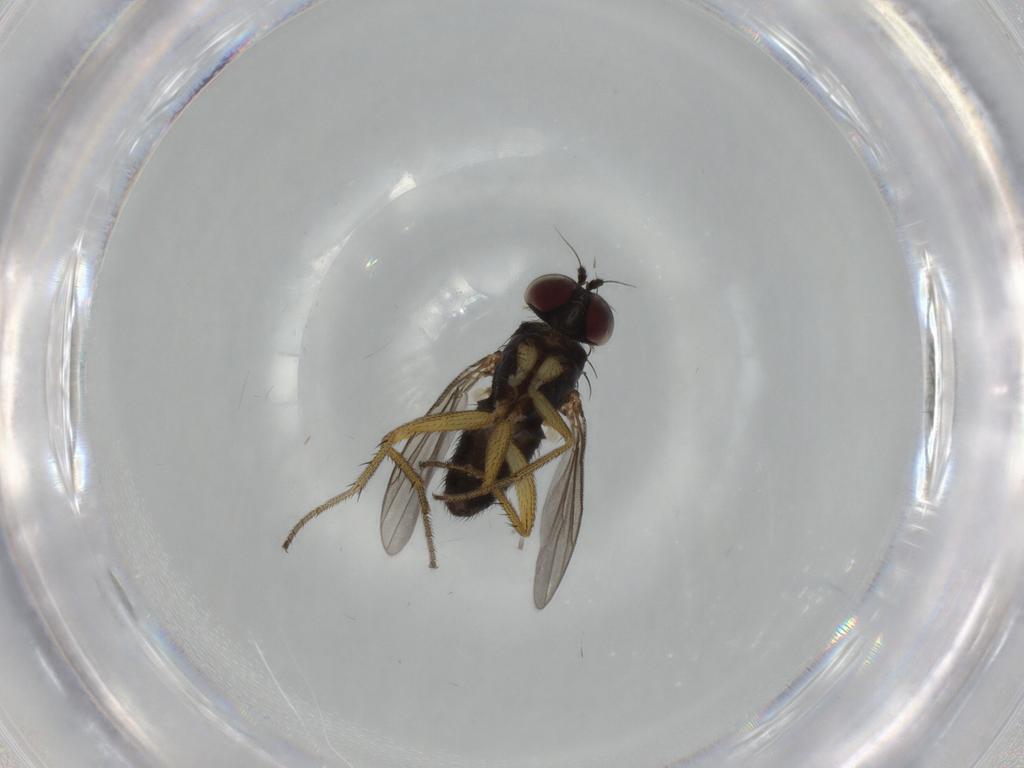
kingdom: Animalia
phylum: Arthropoda
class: Insecta
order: Diptera
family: Dolichopodidae
